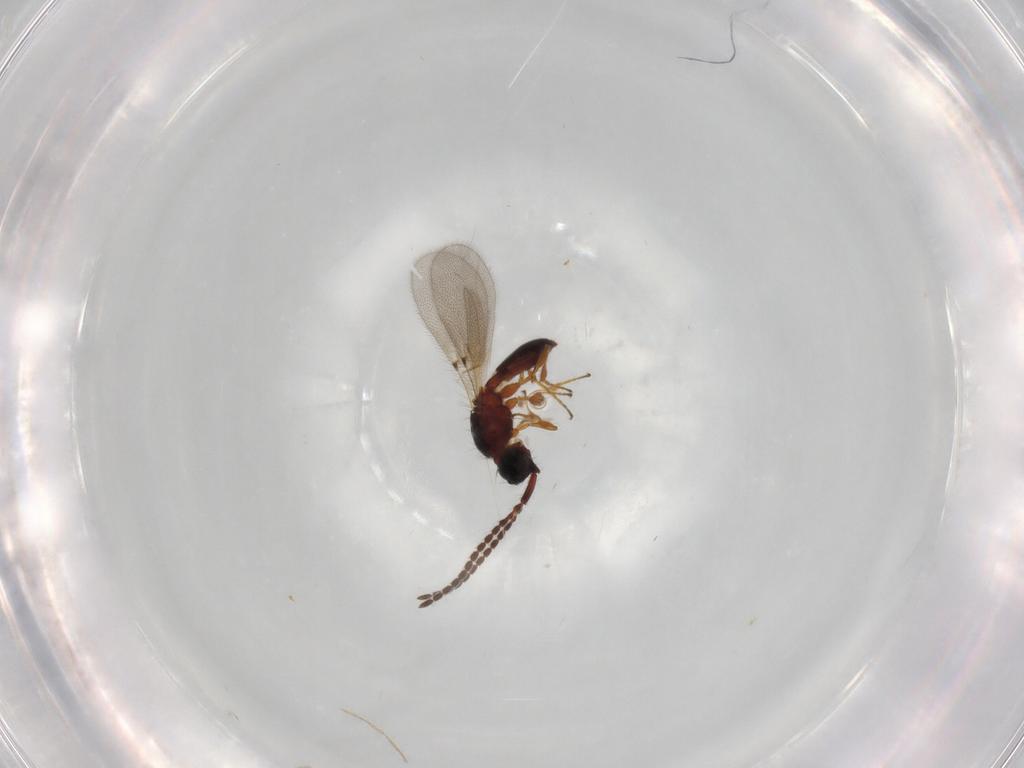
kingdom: Animalia
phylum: Arthropoda
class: Insecta
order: Hymenoptera
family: Diapriidae
